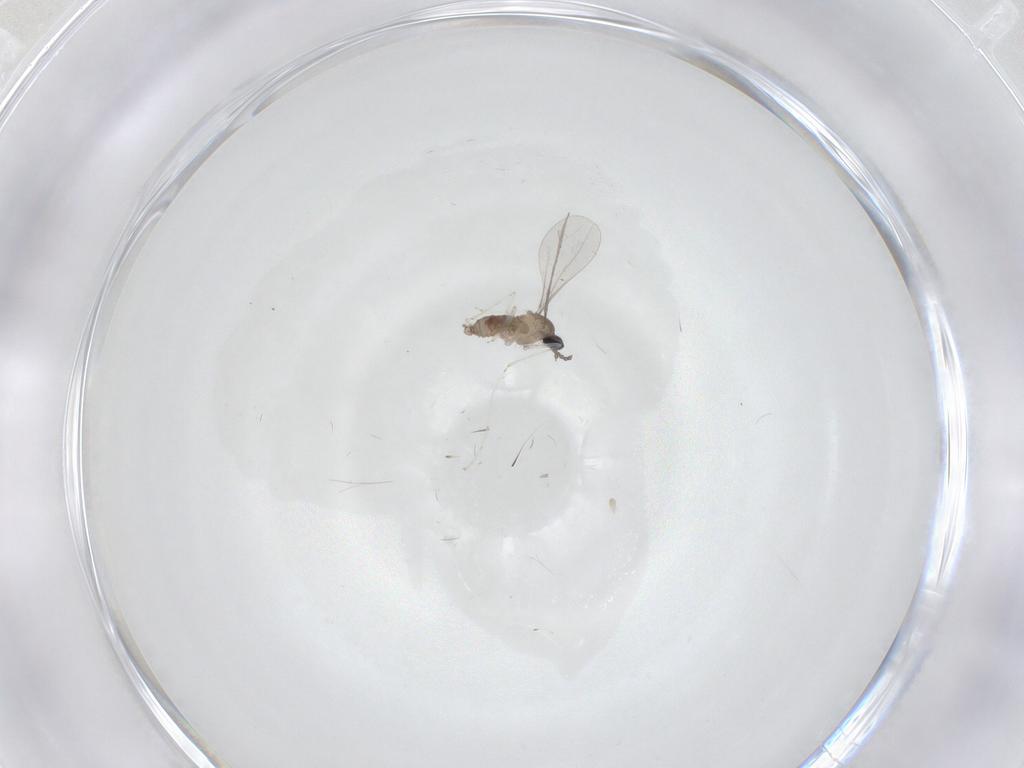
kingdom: Animalia
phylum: Arthropoda
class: Insecta
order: Diptera
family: Cecidomyiidae
